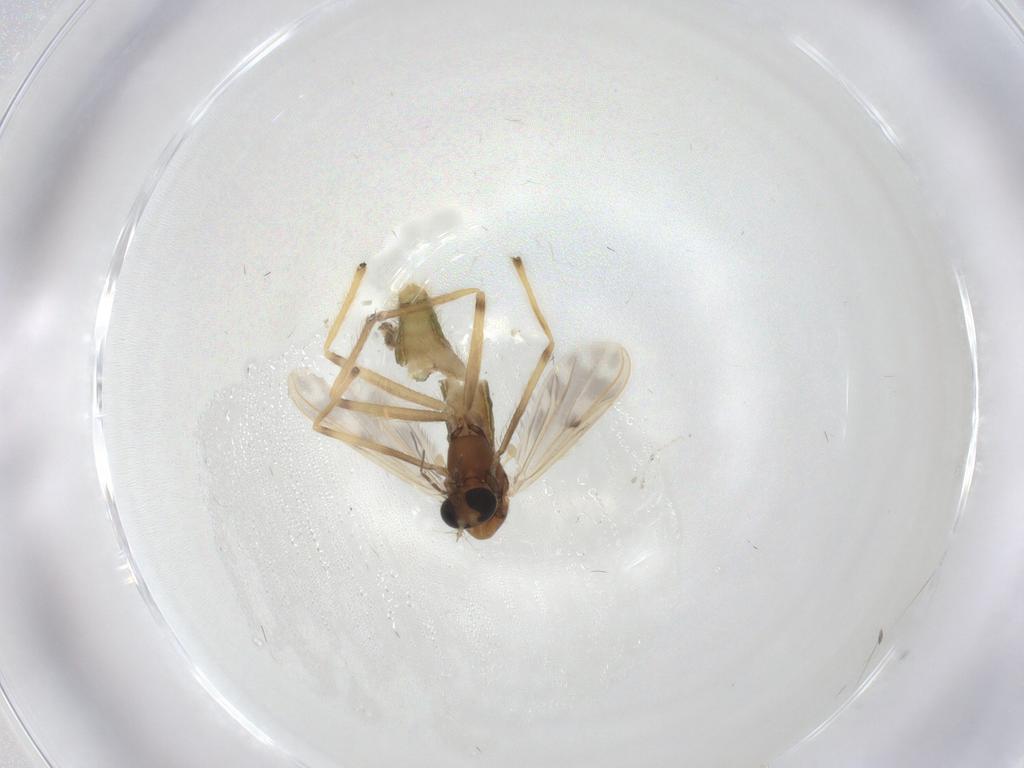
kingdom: Animalia
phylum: Arthropoda
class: Insecta
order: Diptera
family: Chironomidae
